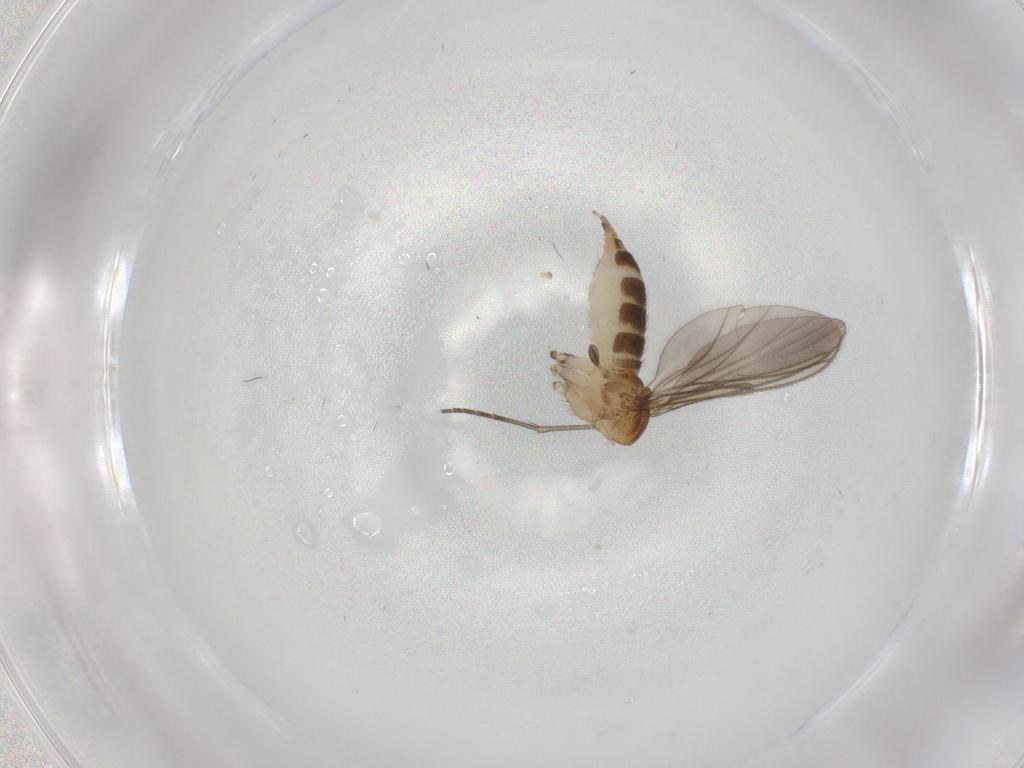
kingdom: Animalia
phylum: Arthropoda
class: Insecta
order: Diptera
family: Sciaridae
